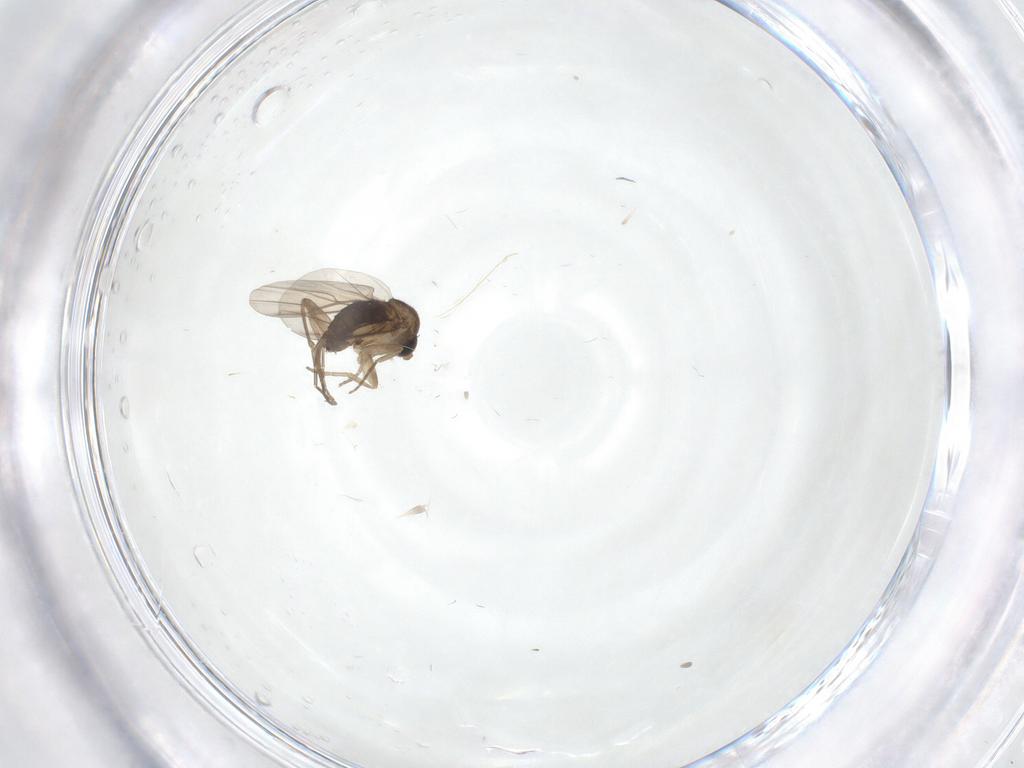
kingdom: Animalia
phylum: Arthropoda
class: Insecta
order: Diptera
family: Phoridae
